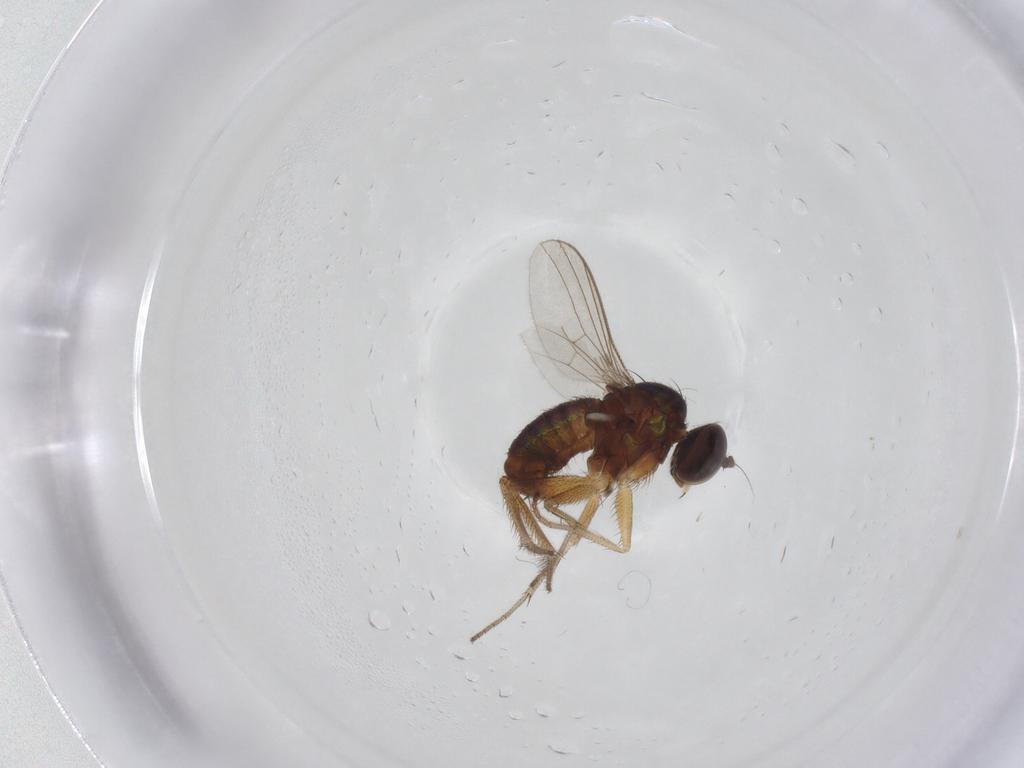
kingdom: Animalia
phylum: Arthropoda
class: Insecta
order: Diptera
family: Dolichopodidae
